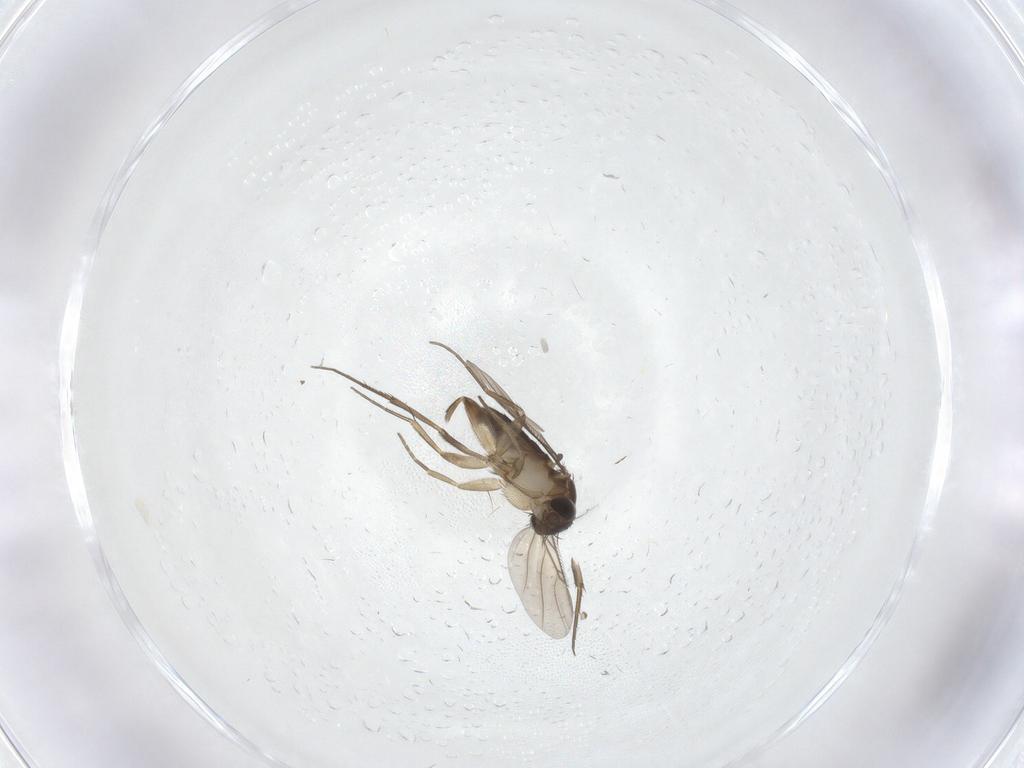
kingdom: Animalia
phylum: Arthropoda
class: Insecta
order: Diptera
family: Phoridae
